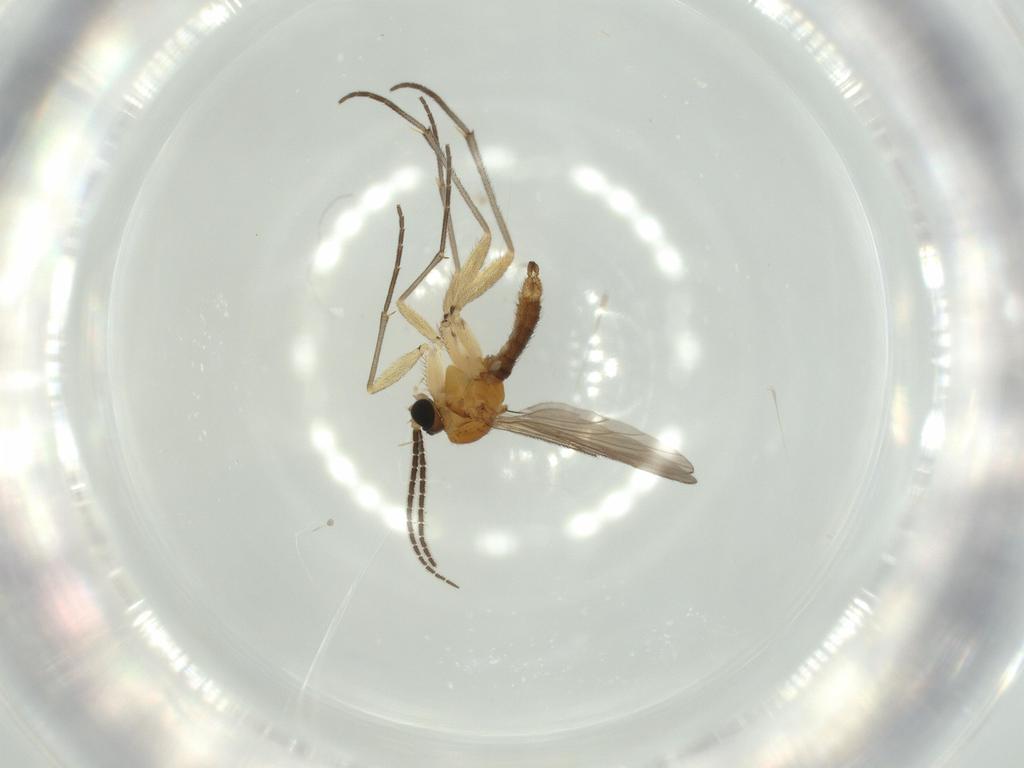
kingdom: Animalia
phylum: Arthropoda
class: Insecta
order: Diptera
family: Sciaridae
